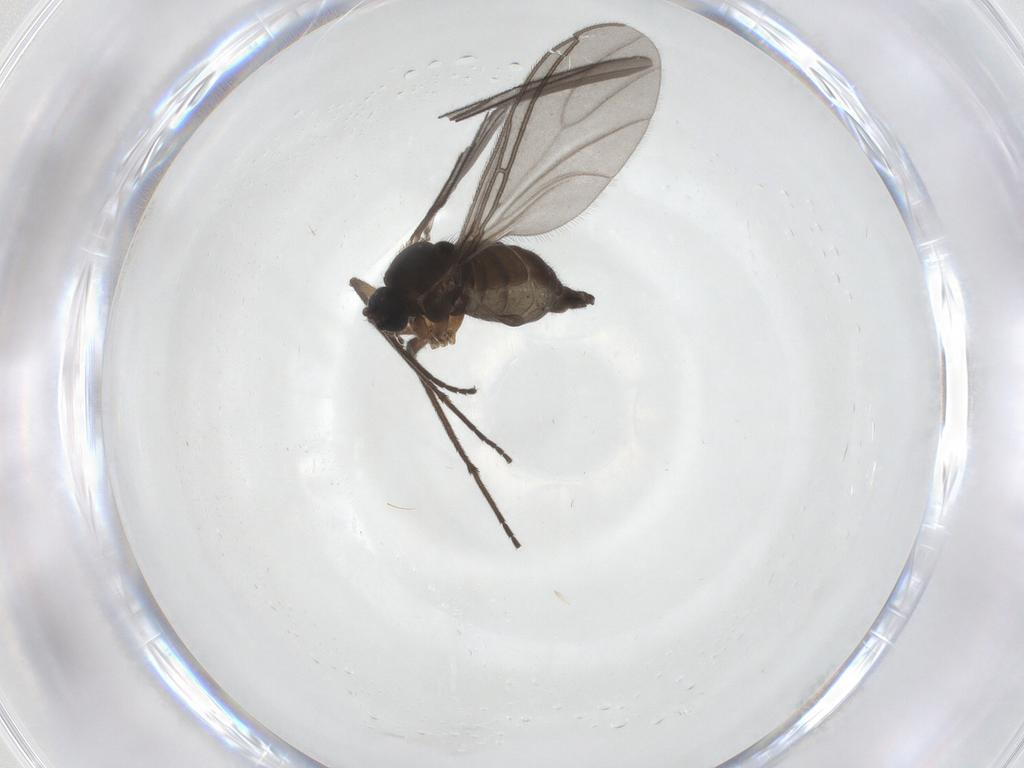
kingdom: Animalia
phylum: Arthropoda
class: Insecta
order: Diptera
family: Sciaridae
